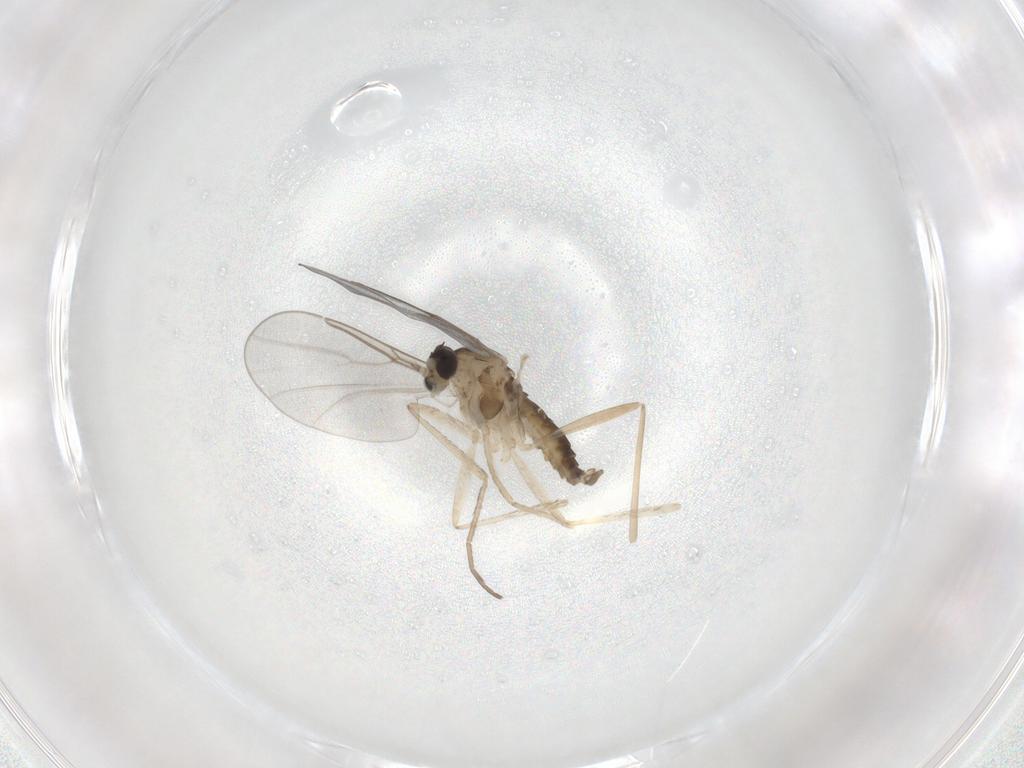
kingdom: Animalia
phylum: Arthropoda
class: Insecta
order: Diptera
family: Cecidomyiidae
